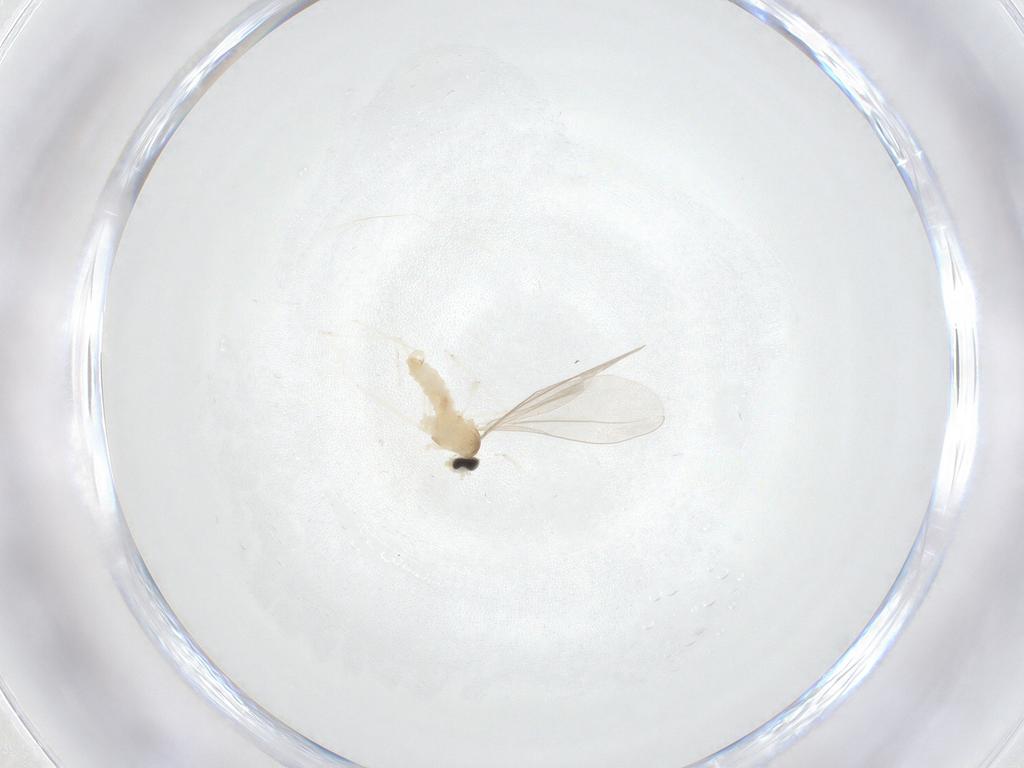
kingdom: Animalia
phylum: Arthropoda
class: Insecta
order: Diptera
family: Cecidomyiidae
